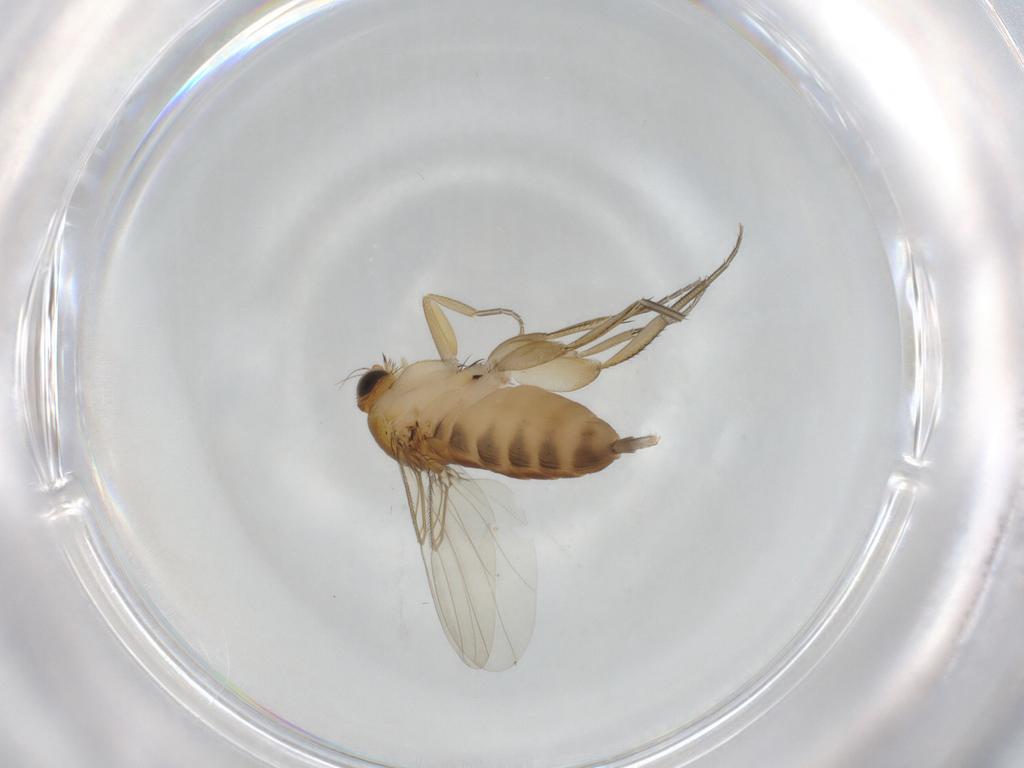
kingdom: Animalia
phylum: Arthropoda
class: Insecta
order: Diptera
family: Phoridae
